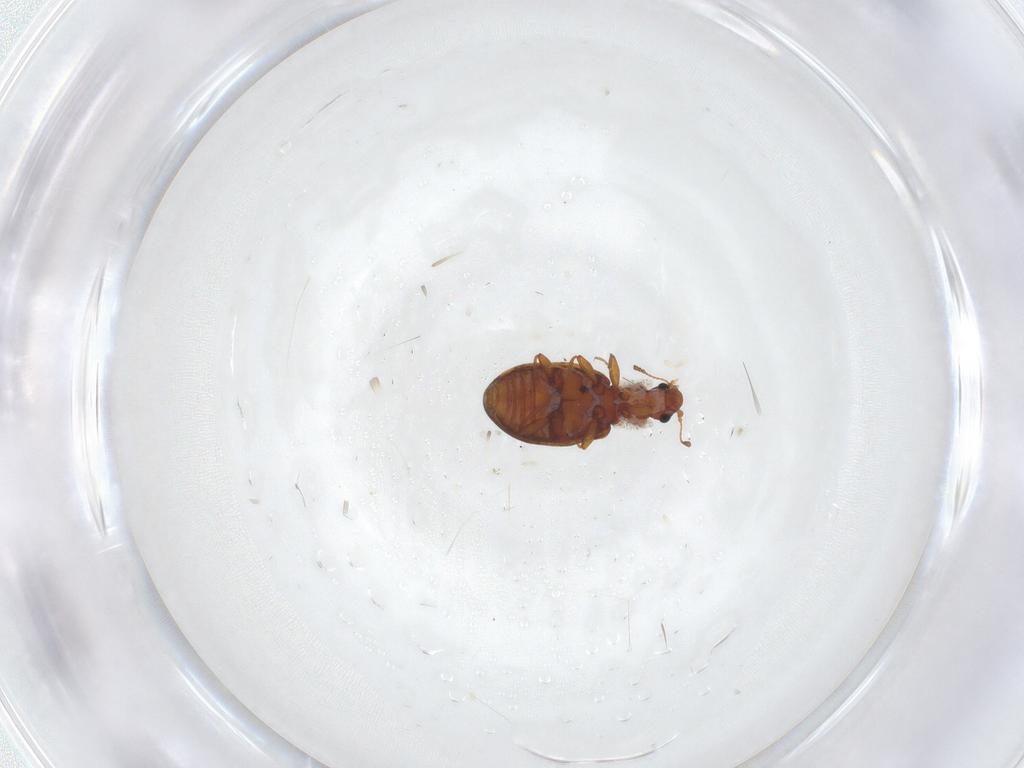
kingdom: Animalia
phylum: Arthropoda
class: Insecta
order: Coleoptera
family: Latridiidae
